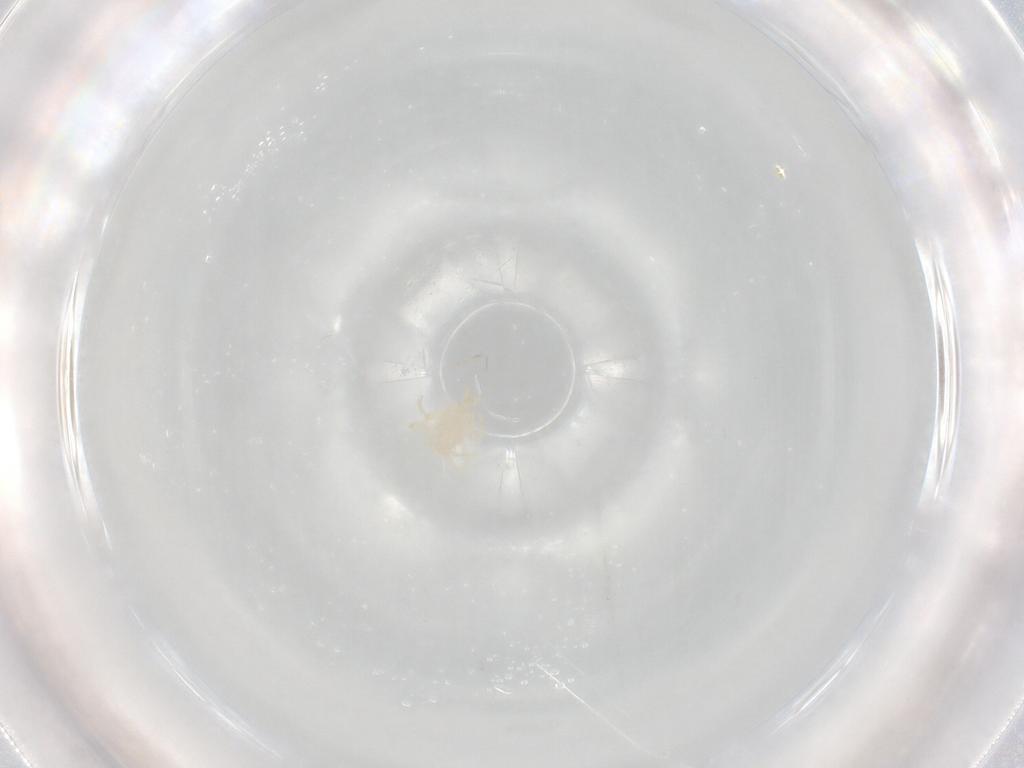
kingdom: Animalia
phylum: Arthropoda
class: Arachnida
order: Trombidiformes
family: Erythraeidae
